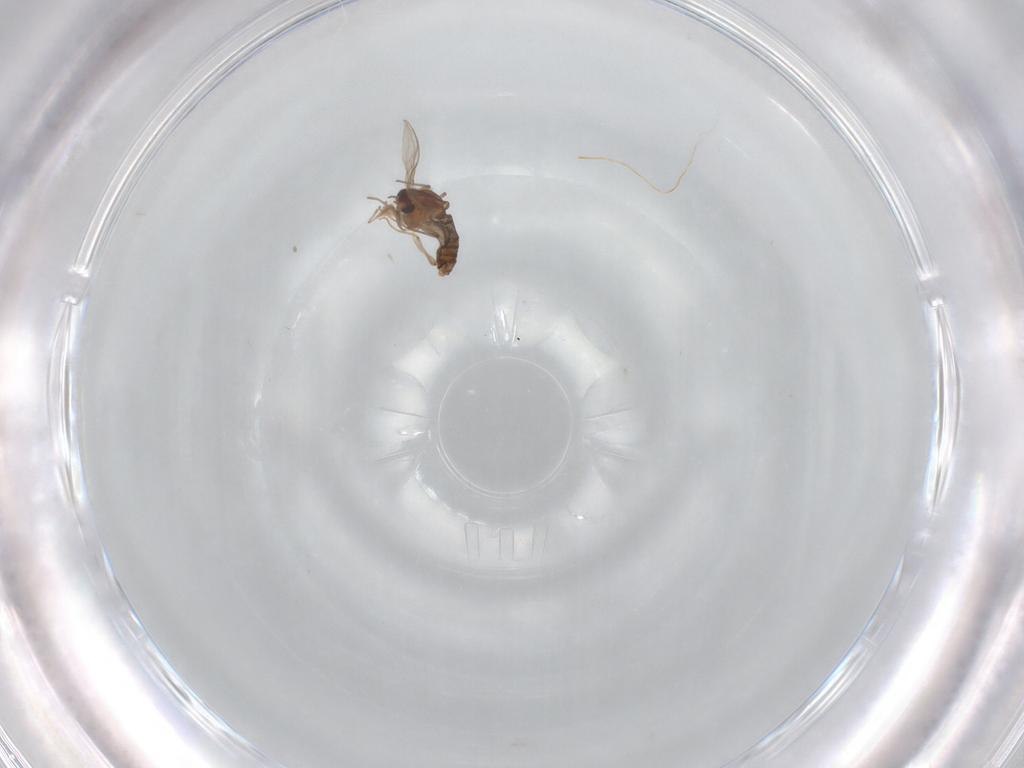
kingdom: Animalia
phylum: Arthropoda
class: Insecta
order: Diptera
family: Chironomidae
